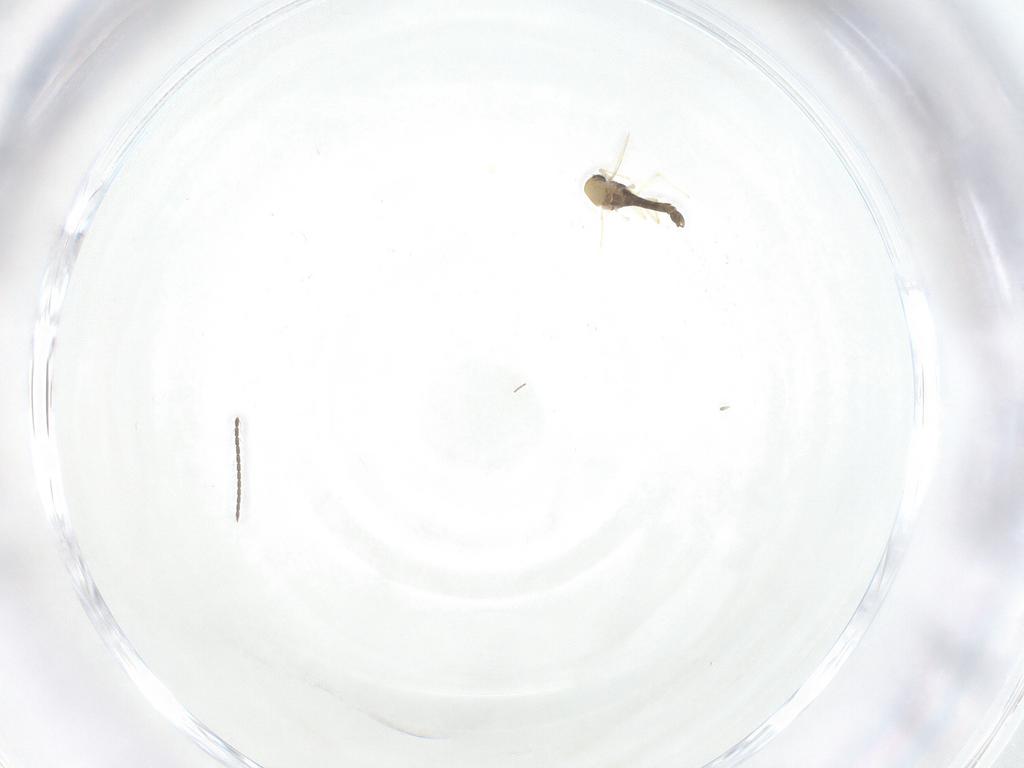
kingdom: Animalia
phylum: Arthropoda
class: Insecta
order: Diptera
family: Chironomidae
